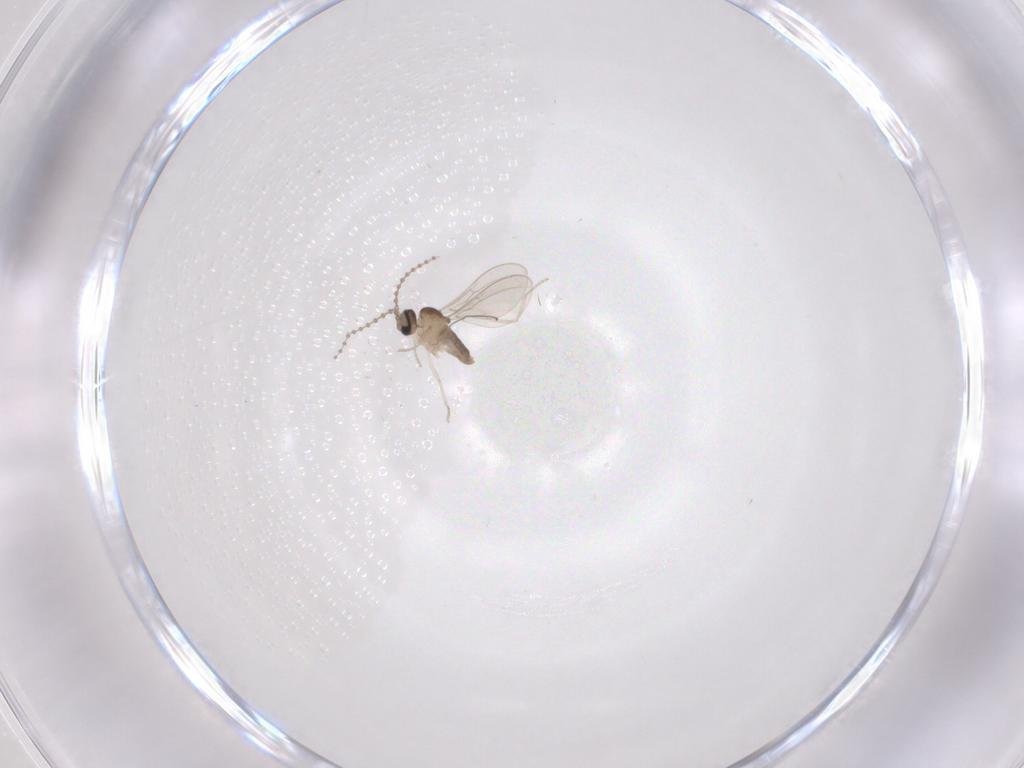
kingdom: Animalia
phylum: Arthropoda
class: Insecta
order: Diptera
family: Cecidomyiidae
